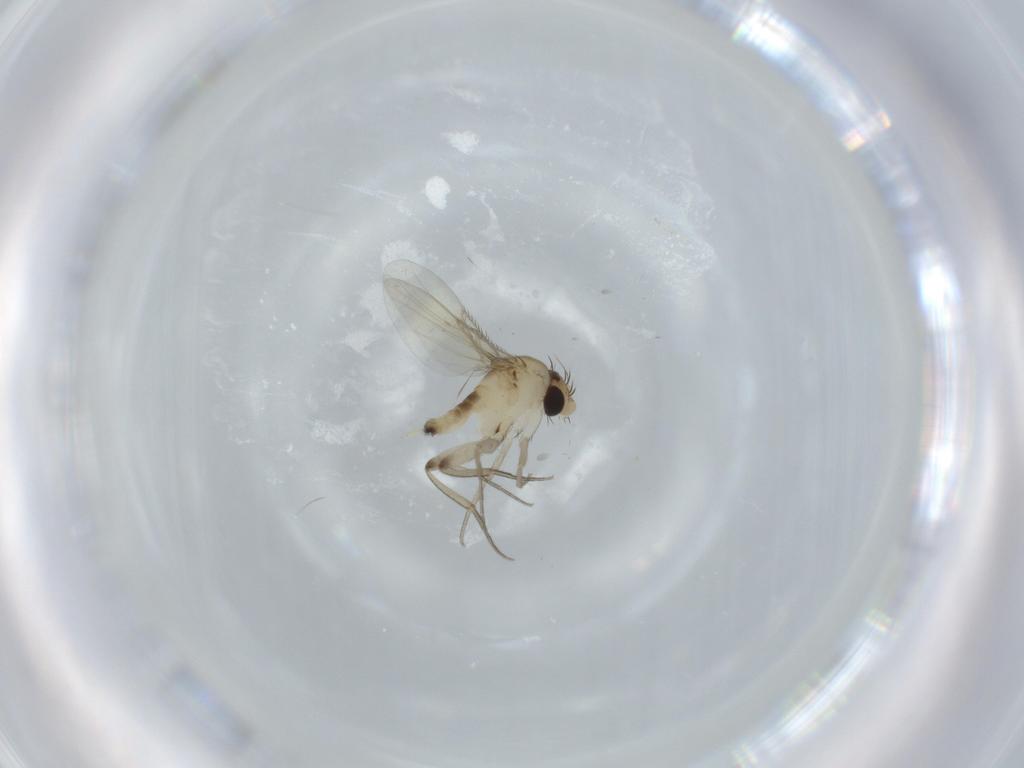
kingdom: Animalia
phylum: Arthropoda
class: Insecta
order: Diptera
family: Phoridae
